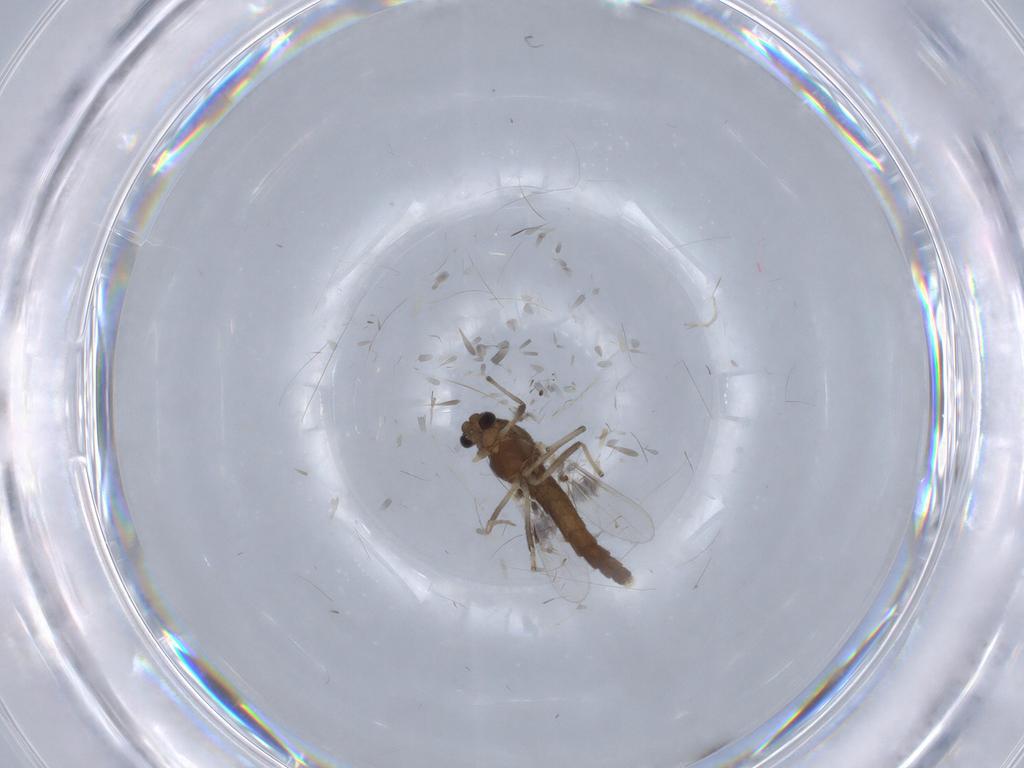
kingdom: Animalia
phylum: Arthropoda
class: Insecta
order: Diptera
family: Chironomidae
